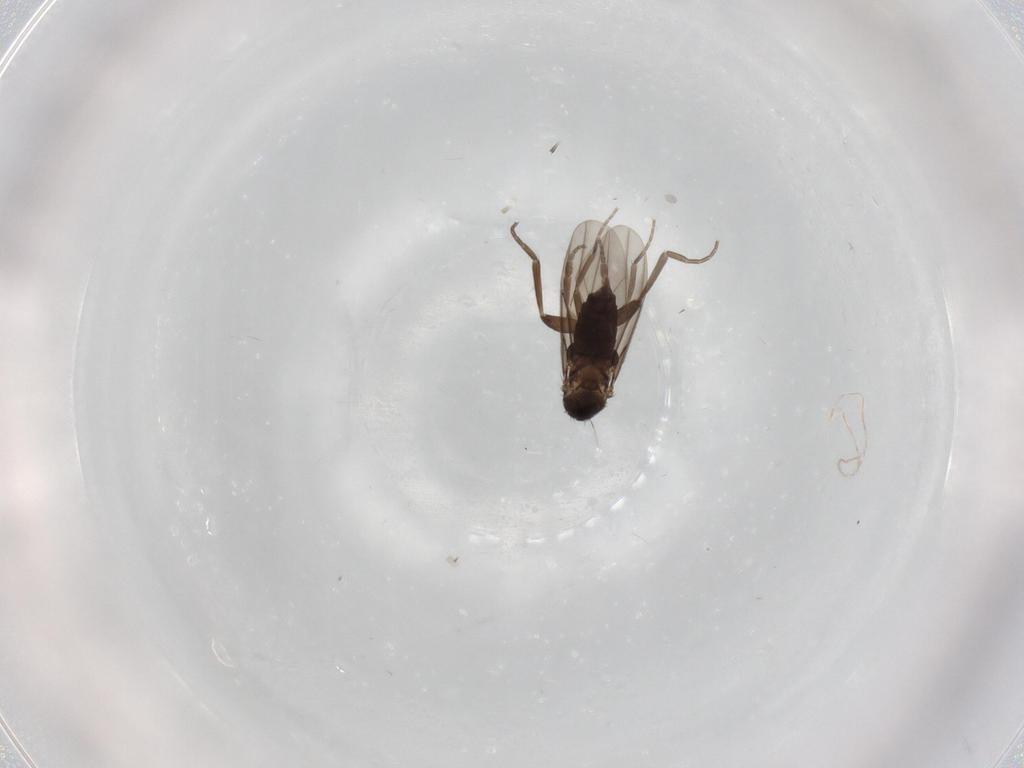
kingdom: Animalia
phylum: Arthropoda
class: Insecta
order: Diptera
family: Phoridae
